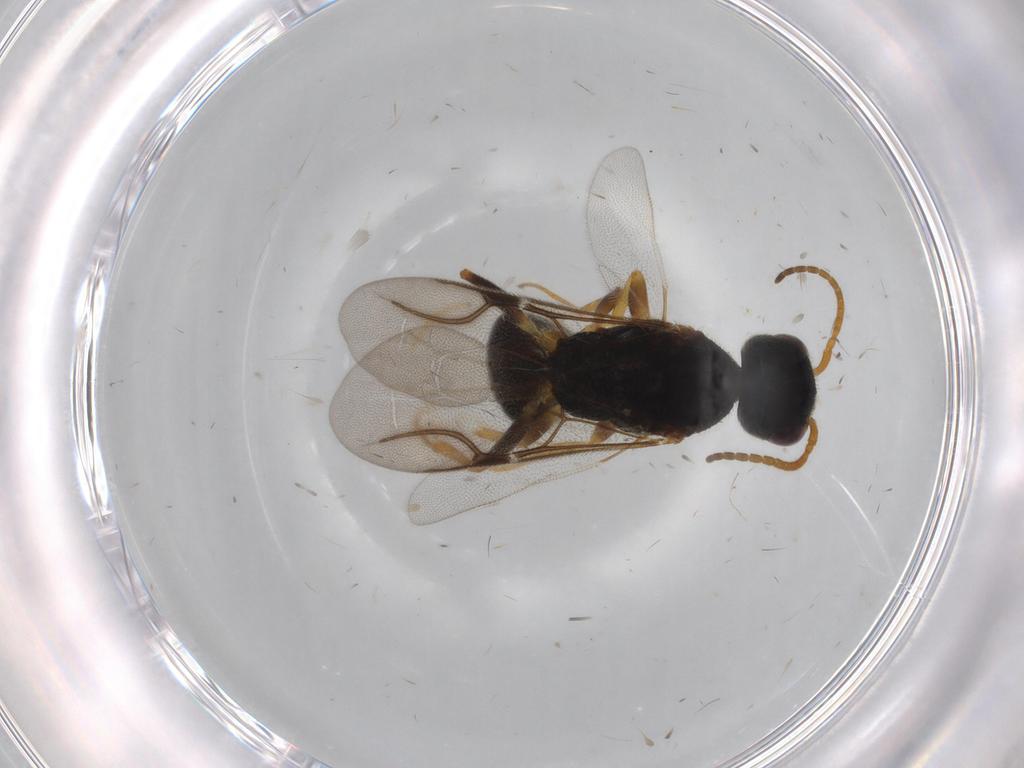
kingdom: Animalia
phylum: Arthropoda
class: Insecta
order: Hymenoptera
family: Bethylidae
